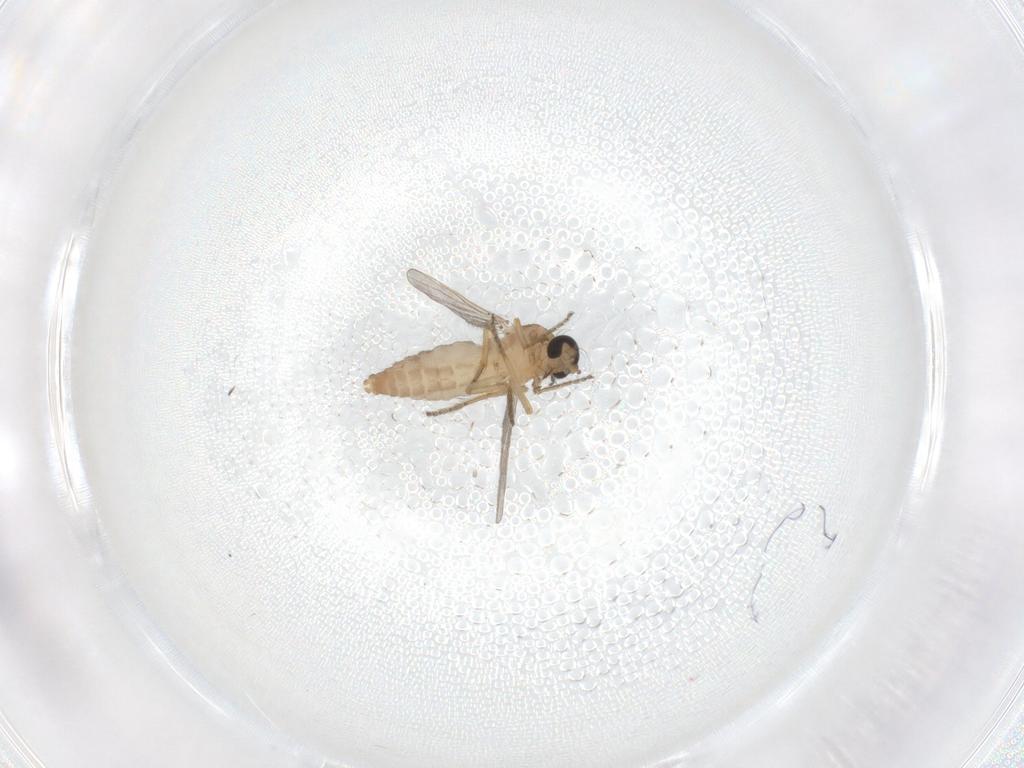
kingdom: Animalia
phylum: Arthropoda
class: Insecta
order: Diptera
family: Ceratopogonidae
